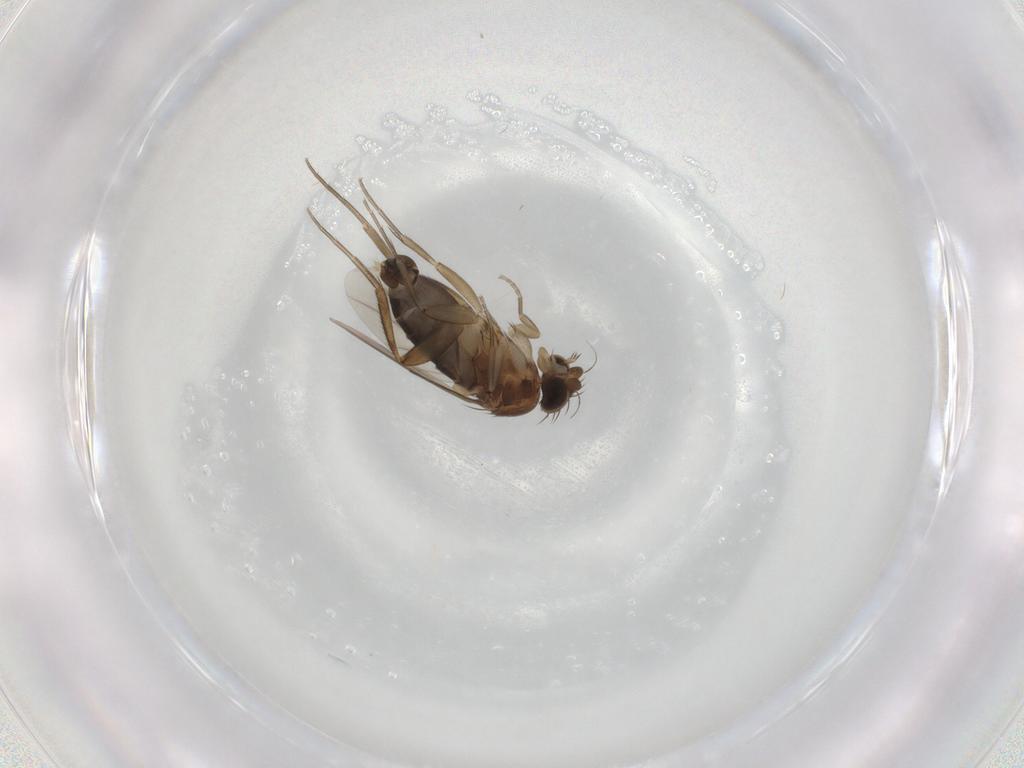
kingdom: Animalia
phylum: Arthropoda
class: Insecta
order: Diptera
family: Phoridae
